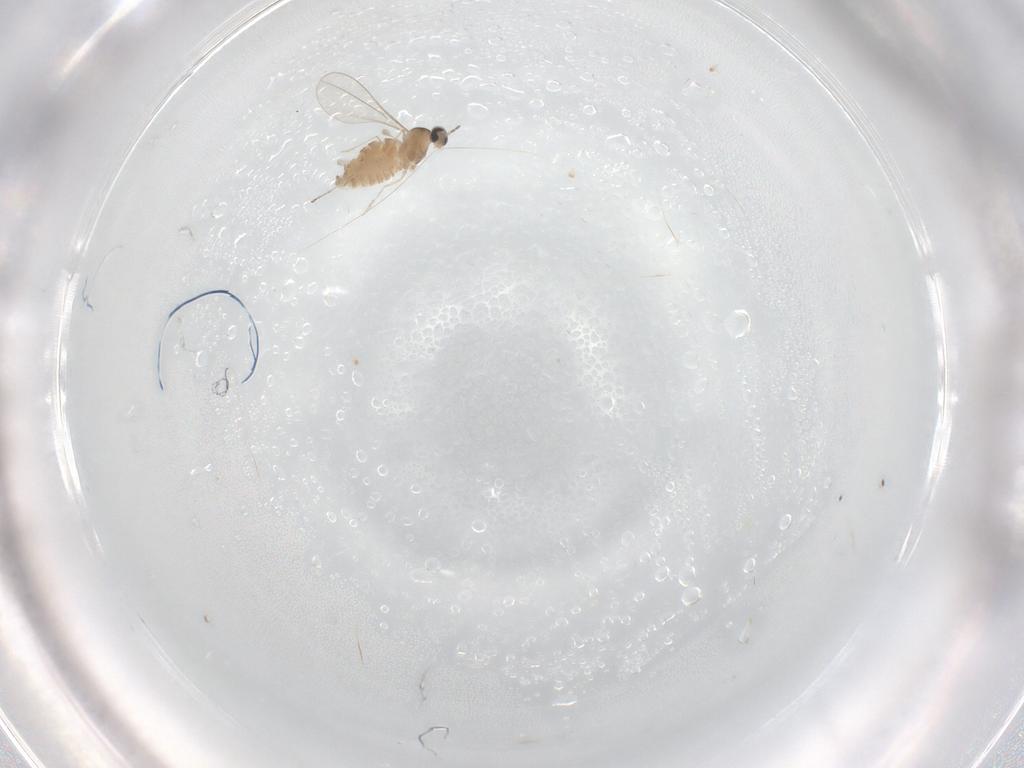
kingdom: Animalia
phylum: Arthropoda
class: Insecta
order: Diptera
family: Cecidomyiidae
